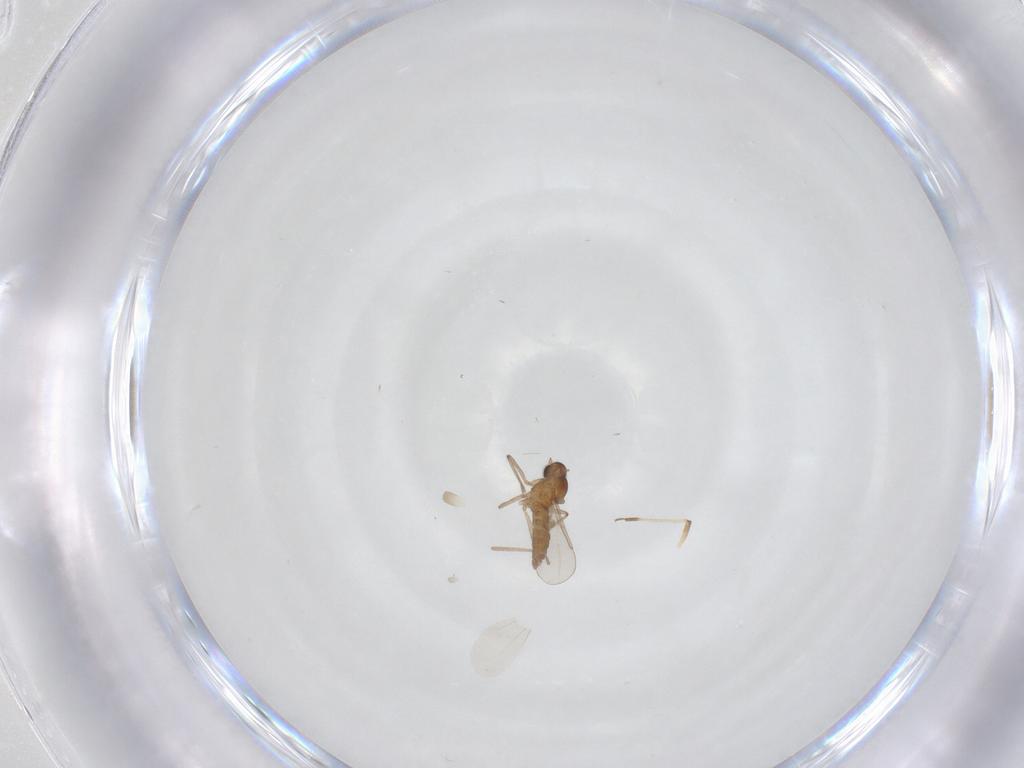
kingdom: Animalia
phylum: Arthropoda
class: Insecta
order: Diptera
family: Cecidomyiidae
